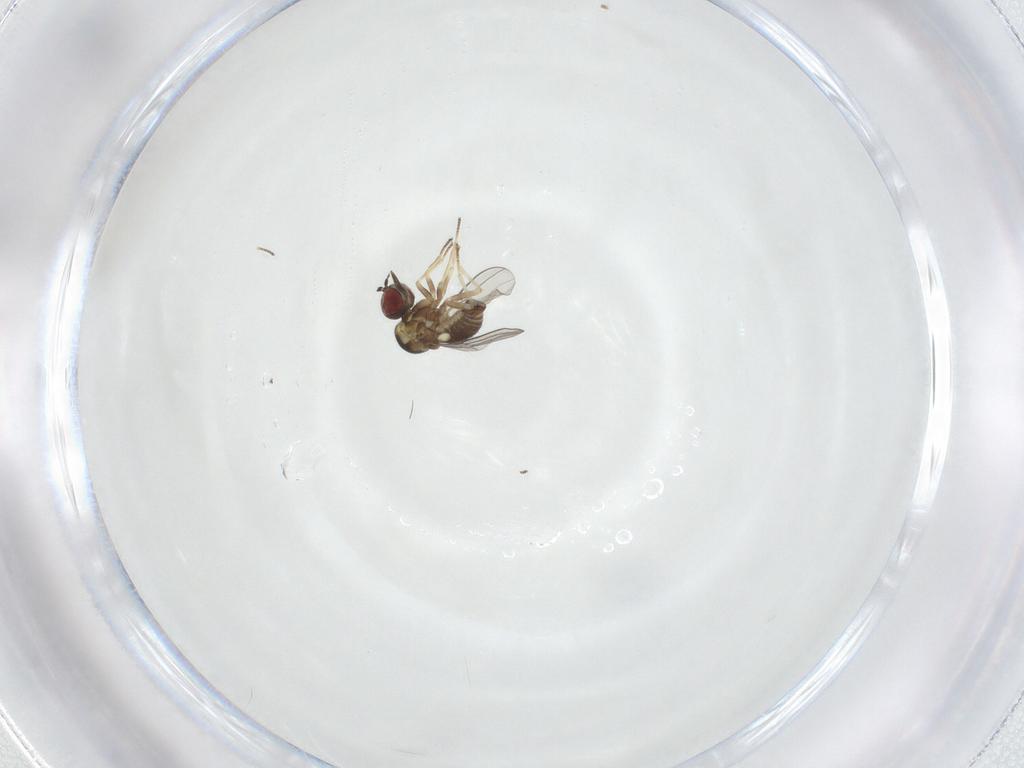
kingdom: Animalia
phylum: Arthropoda
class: Insecta
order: Diptera
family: Bombyliidae
